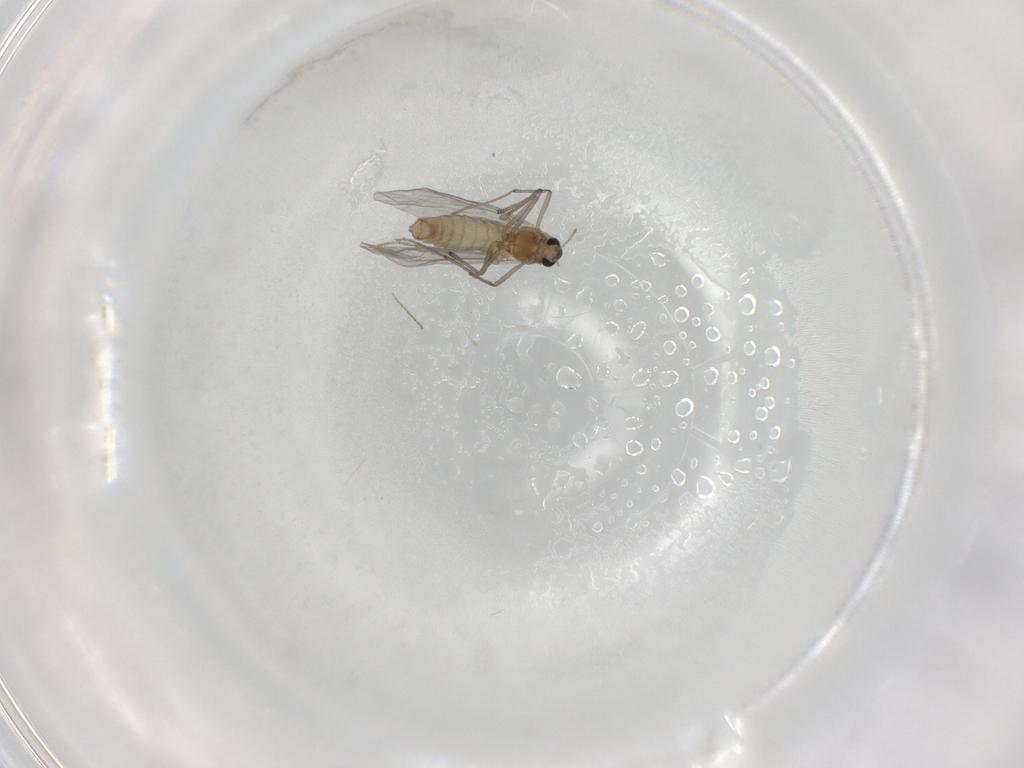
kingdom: Animalia
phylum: Arthropoda
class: Insecta
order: Diptera
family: Chironomidae
